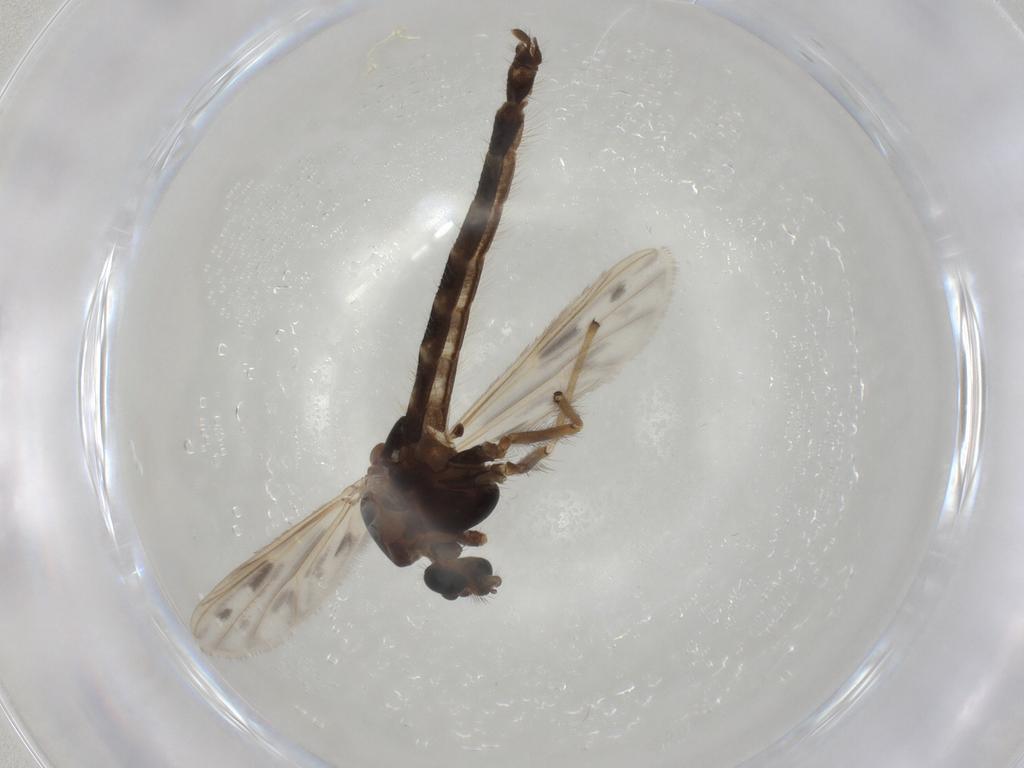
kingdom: Animalia
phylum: Arthropoda
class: Insecta
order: Diptera
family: Chironomidae
